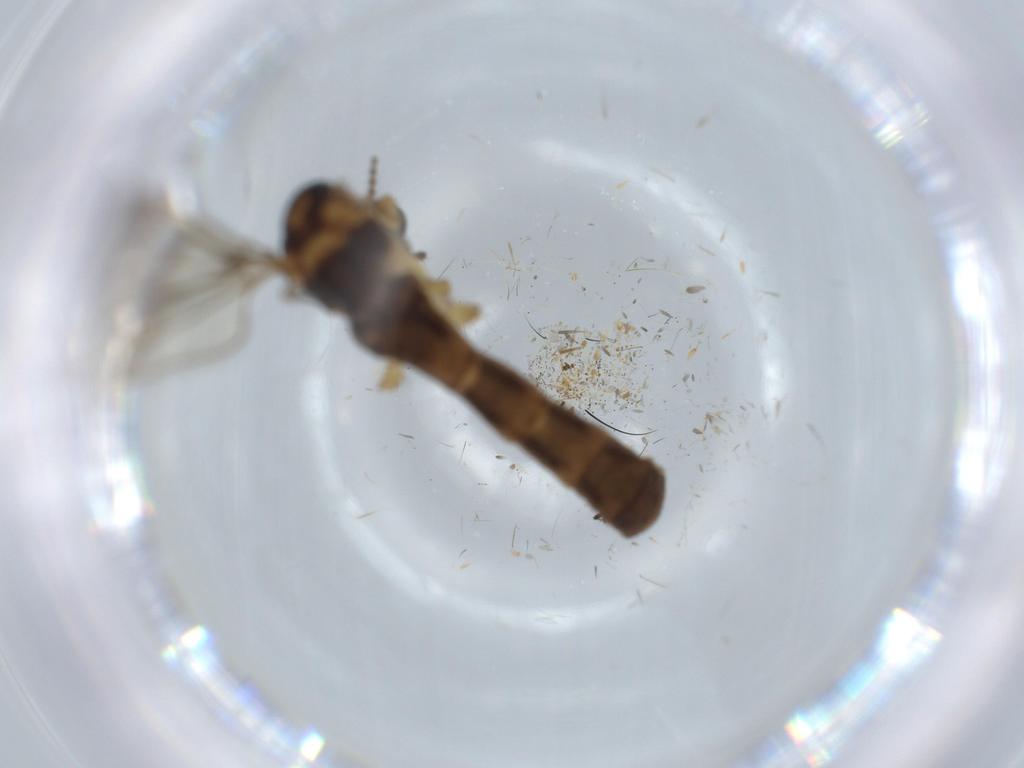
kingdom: Animalia
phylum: Arthropoda
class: Insecta
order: Diptera
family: Sphaeroceridae
